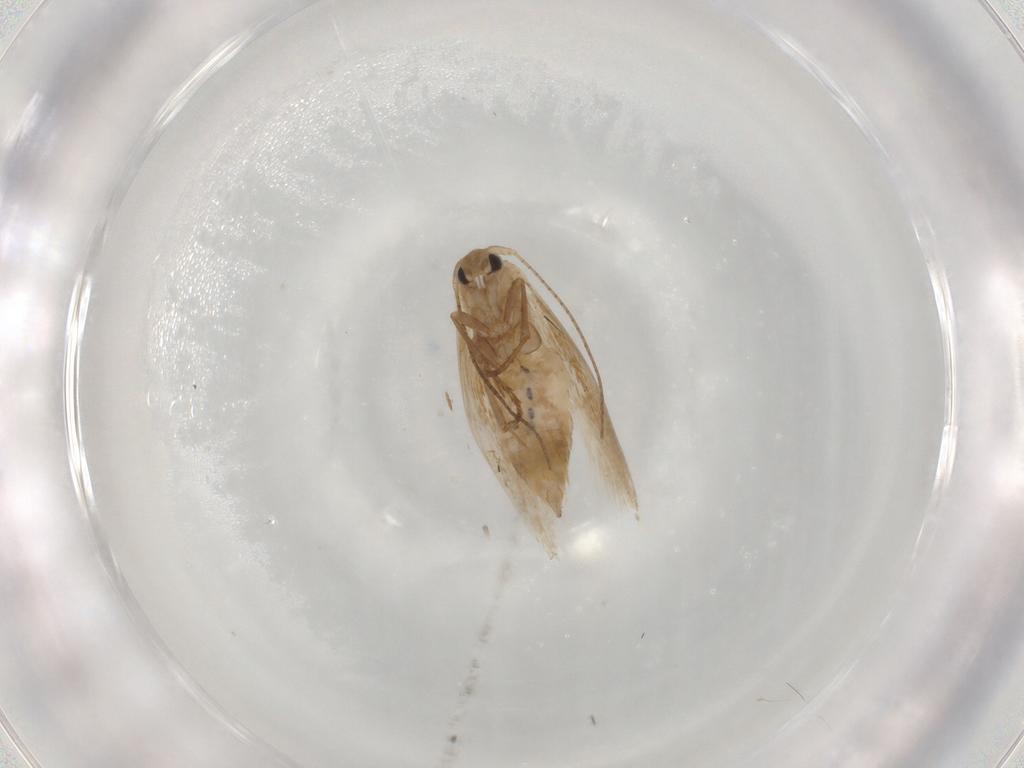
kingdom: Animalia
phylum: Arthropoda
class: Insecta
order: Lepidoptera
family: Bucculatricidae
